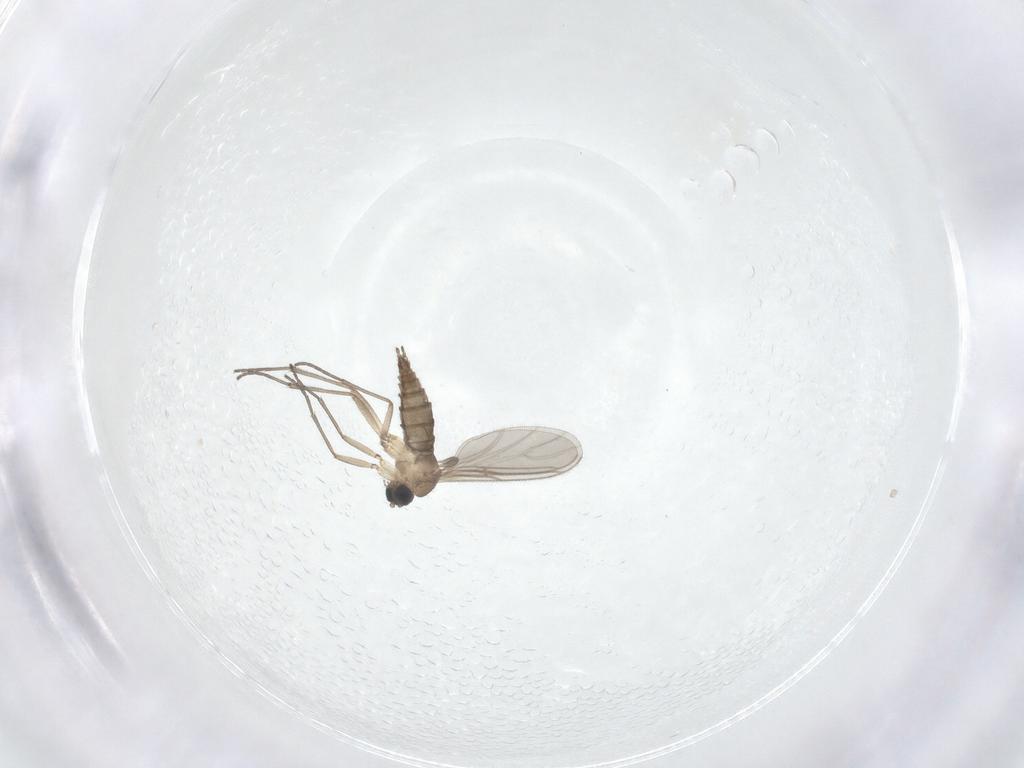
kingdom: Animalia
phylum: Arthropoda
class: Insecta
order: Diptera
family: Sciaridae
